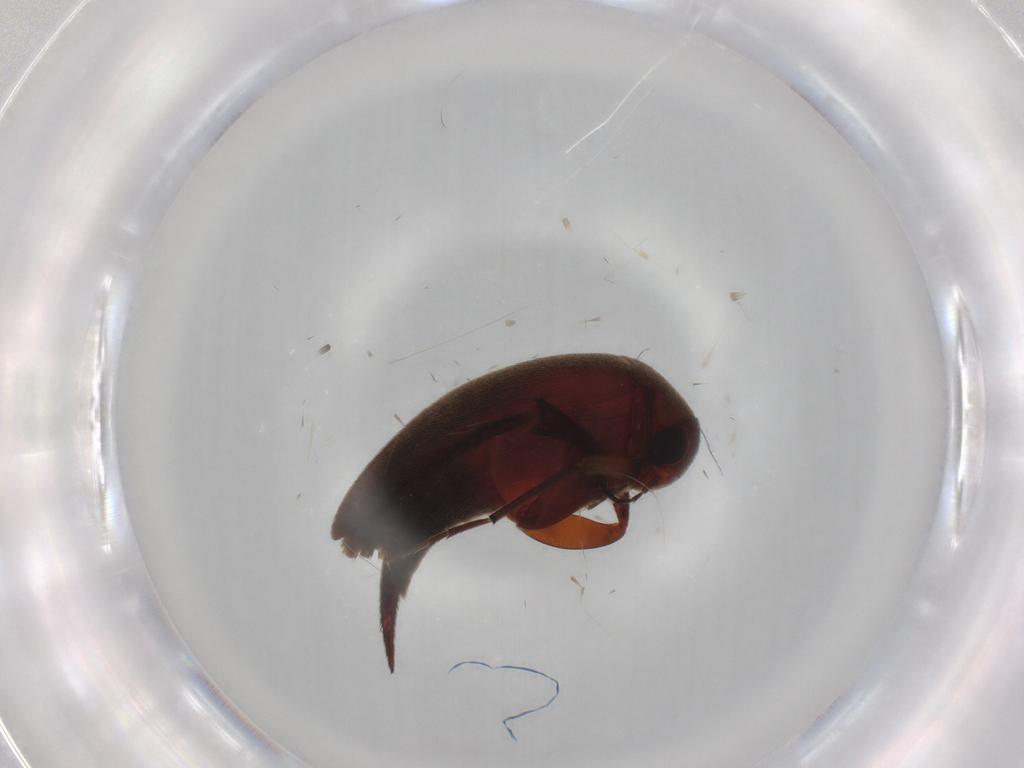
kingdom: Animalia
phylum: Arthropoda
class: Insecta
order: Coleoptera
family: Mordellidae
